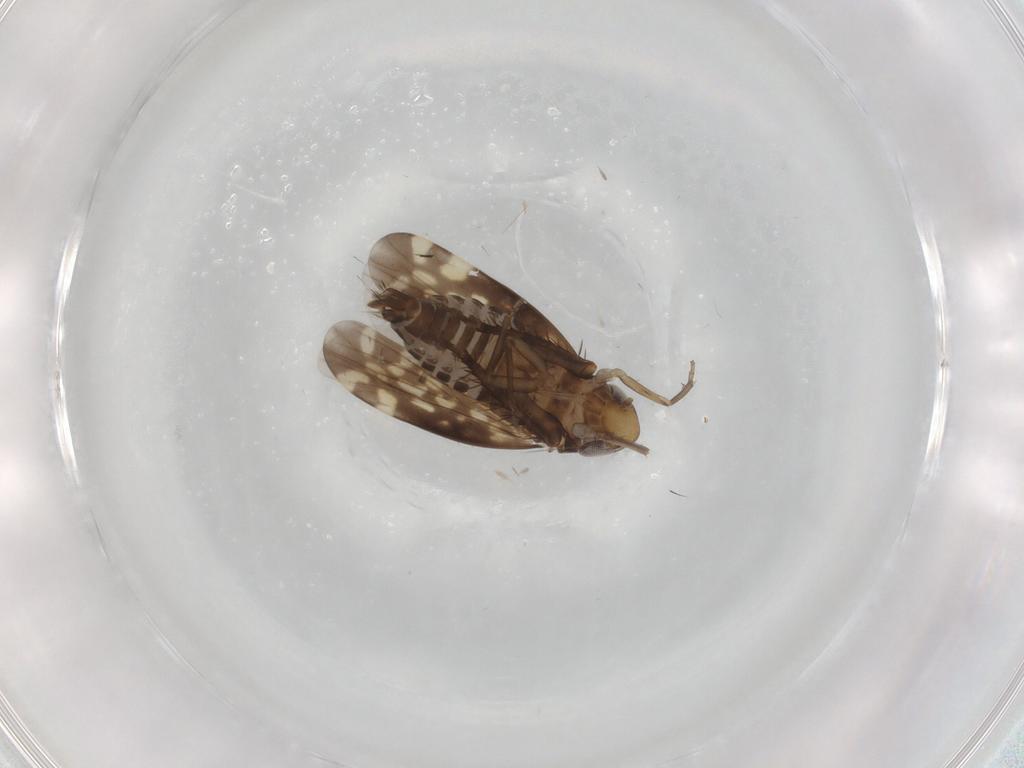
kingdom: Animalia
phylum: Arthropoda
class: Insecta
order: Hemiptera
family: Cicadellidae
